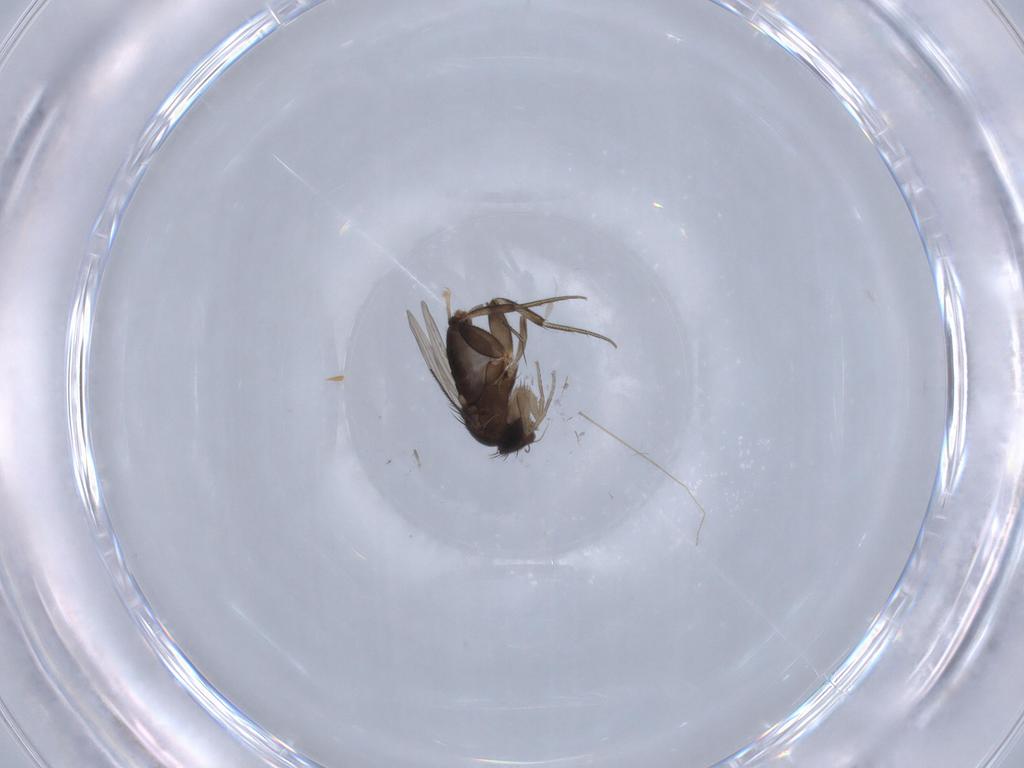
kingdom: Animalia
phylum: Arthropoda
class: Insecta
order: Diptera
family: Chironomidae
